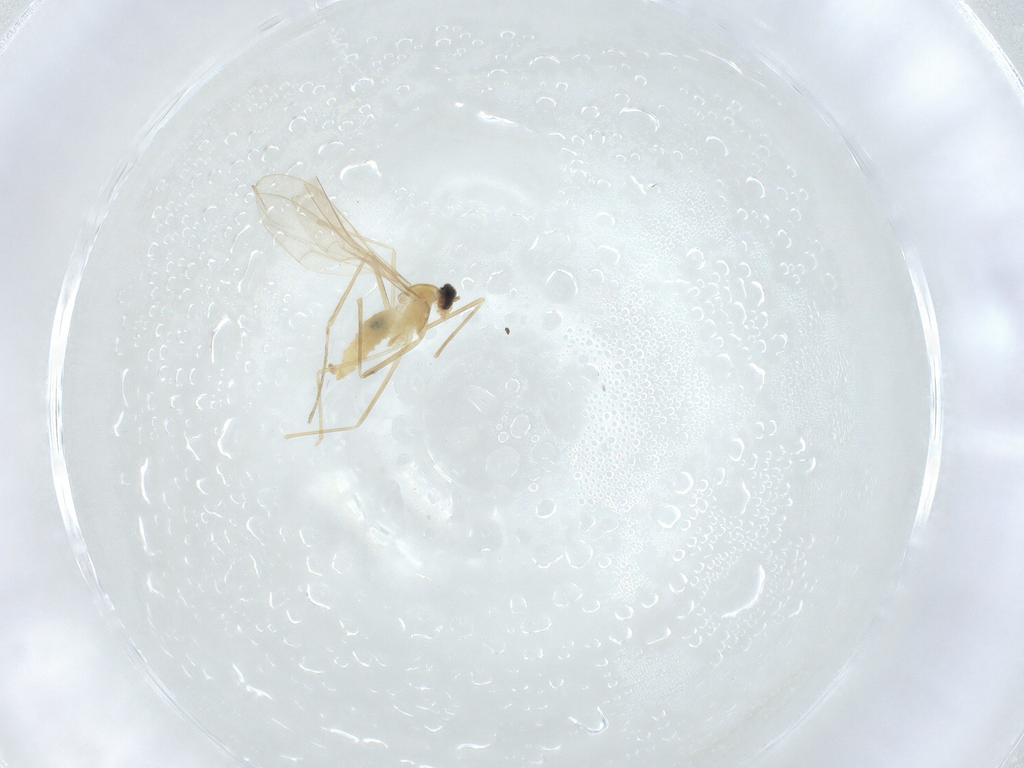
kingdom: Animalia
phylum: Arthropoda
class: Insecta
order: Diptera
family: Cecidomyiidae
